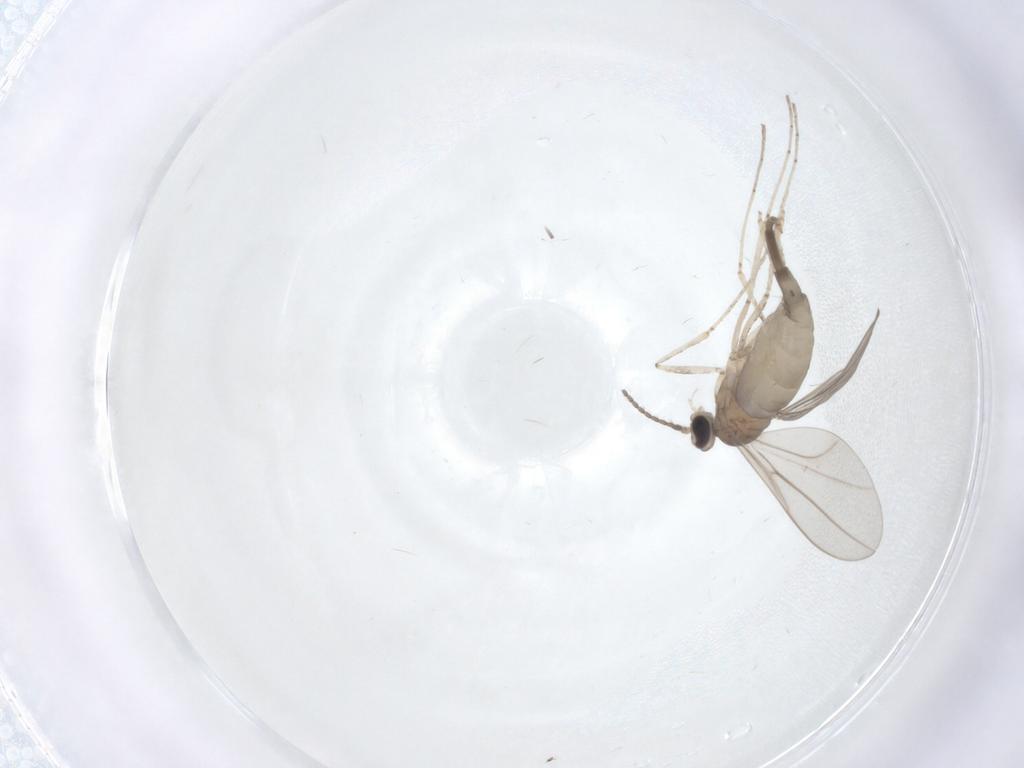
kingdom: Animalia
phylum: Arthropoda
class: Insecta
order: Diptera
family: Cecidomyiidae
